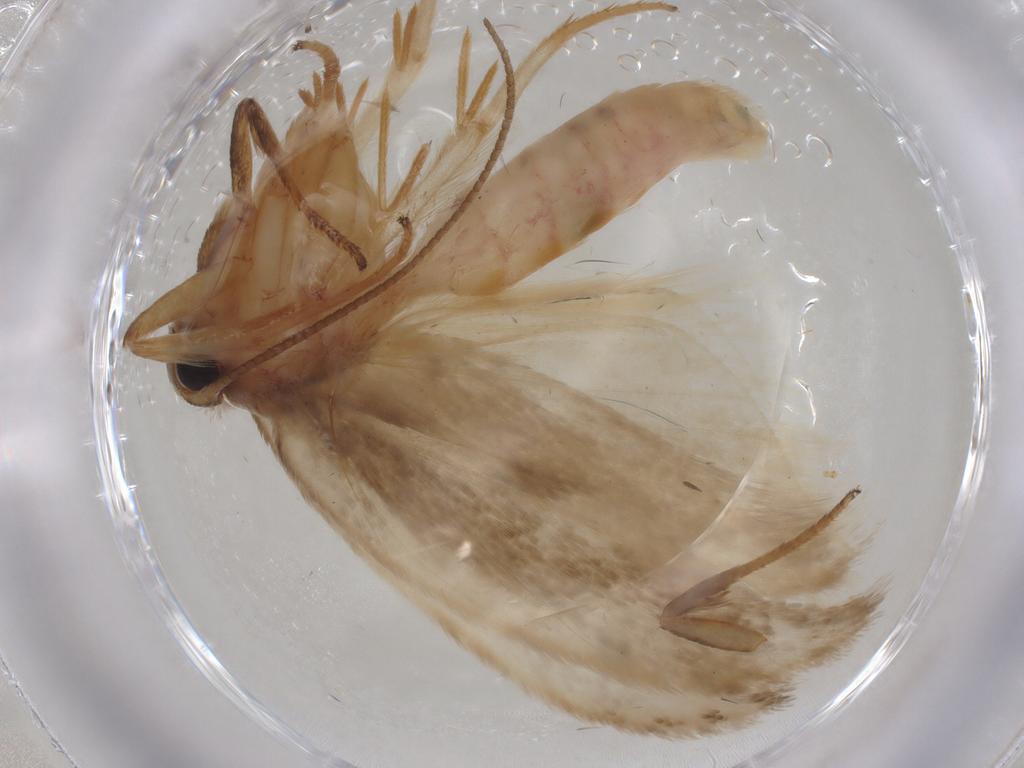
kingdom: Animalia
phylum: Arthropoda
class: Insecta
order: Lepidoptera
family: Oecophoridae
